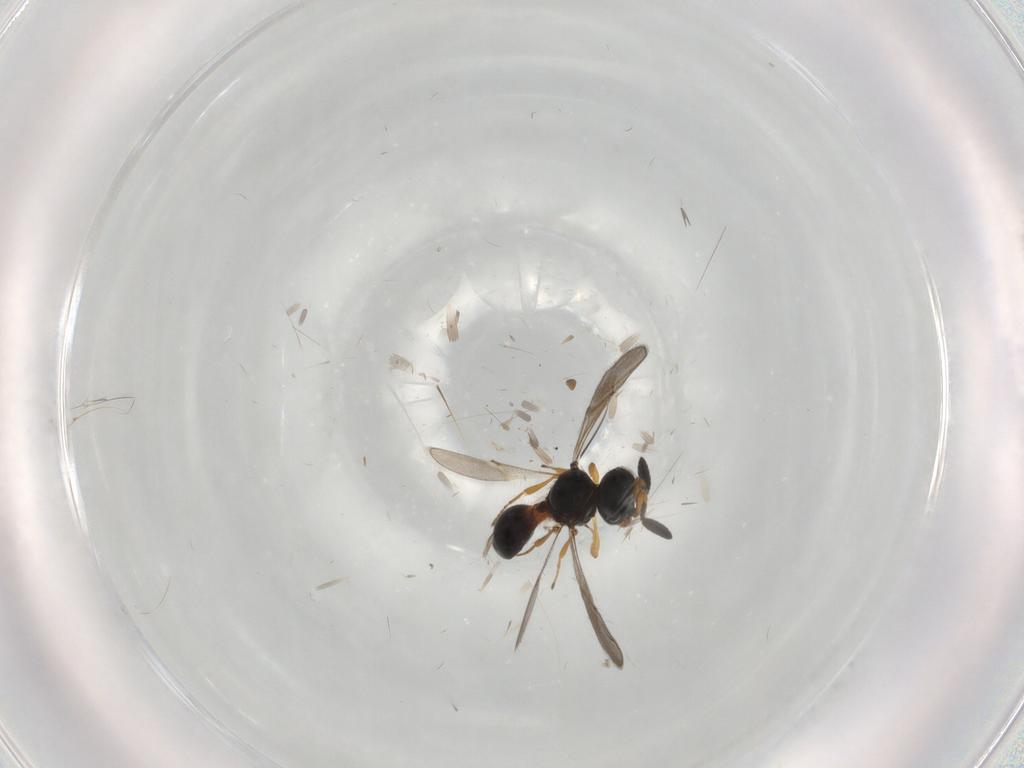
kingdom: Animalia
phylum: Arthropoda
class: Insecta
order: Hymenoptera
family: Scelionidae
